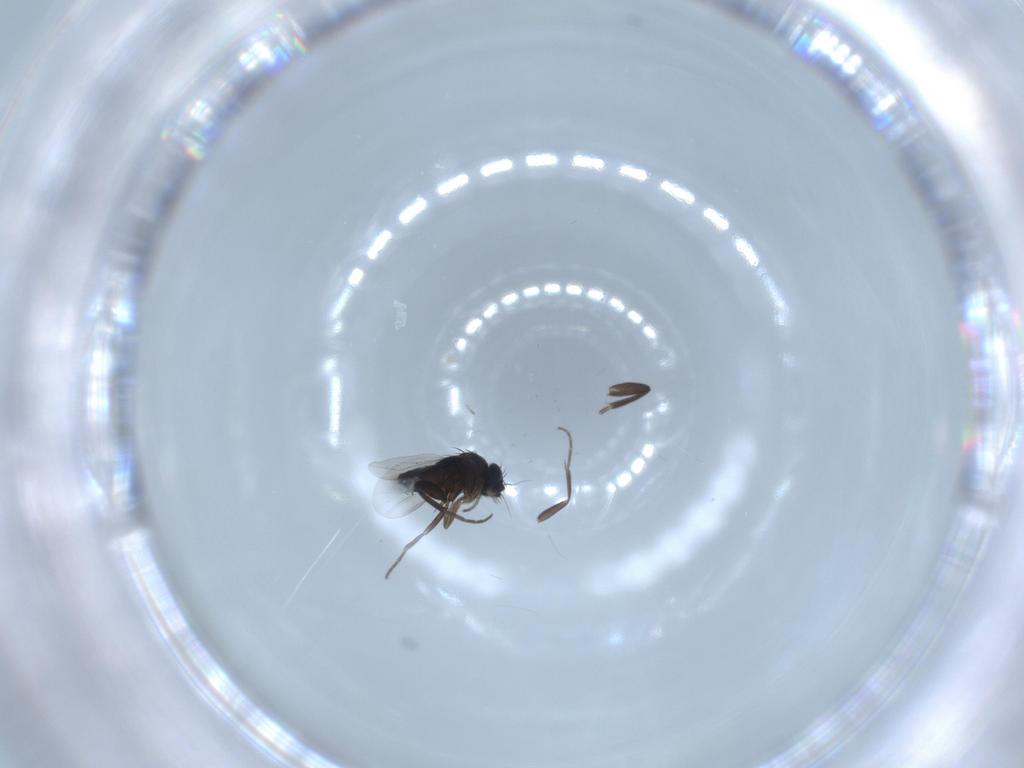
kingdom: Animalia
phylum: Arthropoda
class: Insecta
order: Diptera
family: Phoridae
